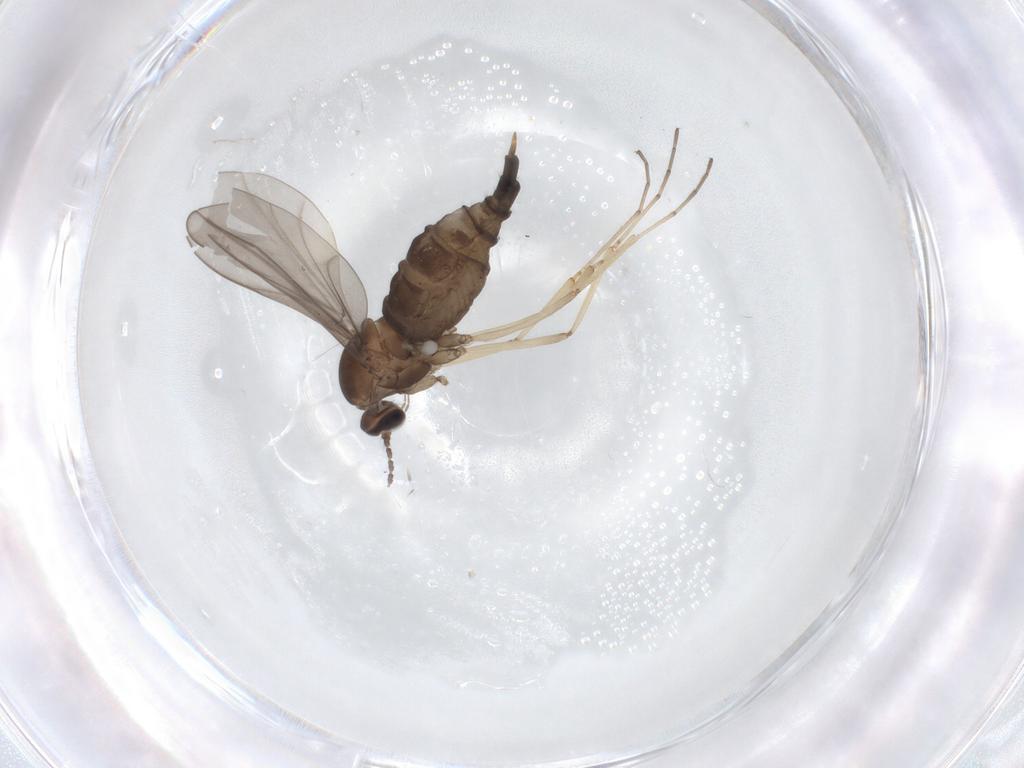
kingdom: Animalia
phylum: Arthropoda
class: Insecta
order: Diptera
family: Cecidomyiidae
